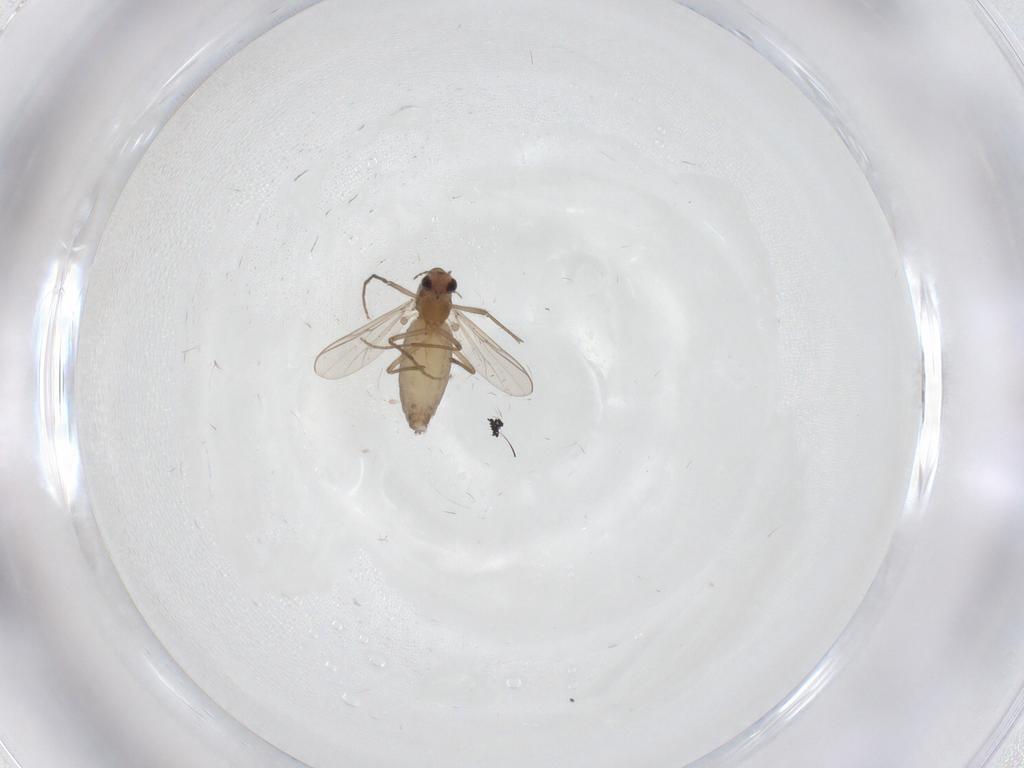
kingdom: Animalia
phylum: Arthropoda
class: Insecta
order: Diptera
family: Chironomidae
